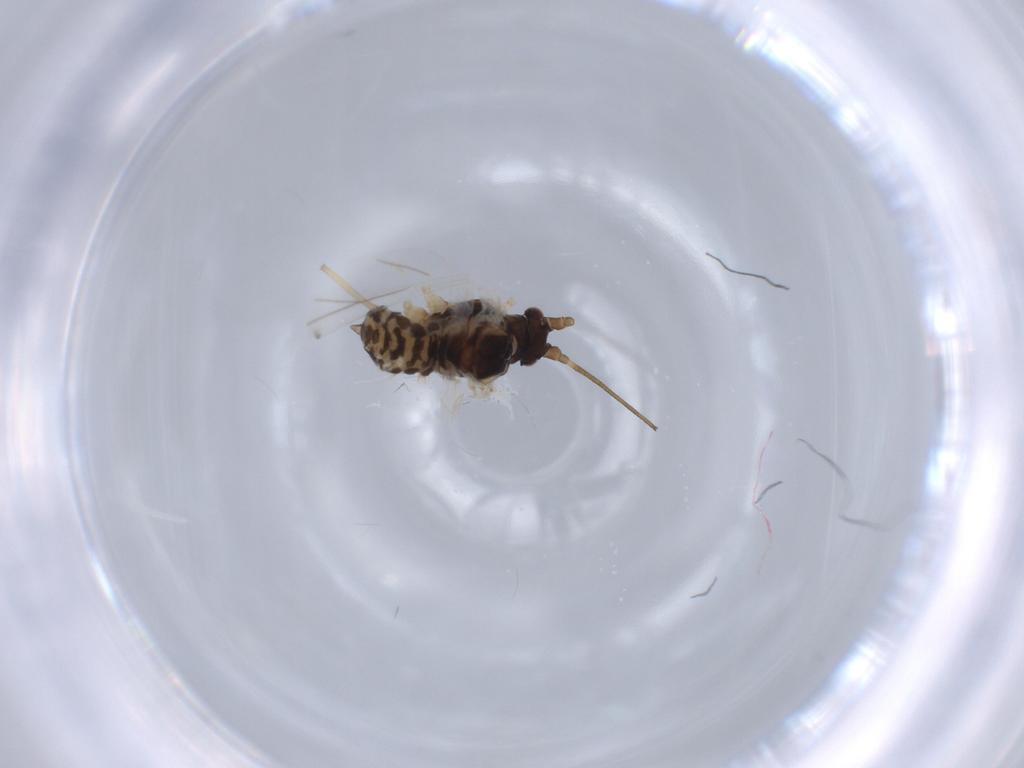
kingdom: Animalia
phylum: Arthropoda
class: Insecta
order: Hemiptera
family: Aphididae
